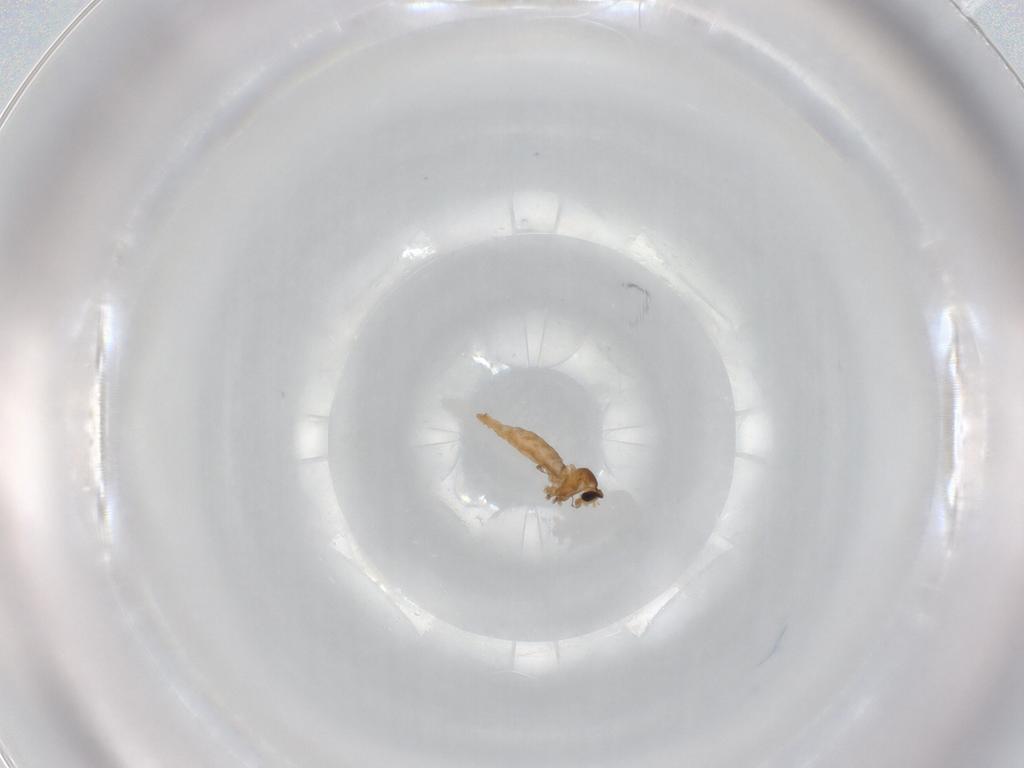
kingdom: Animalia
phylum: Arthropoda
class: Insecta
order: Diptera
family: Cecidomyiidae
